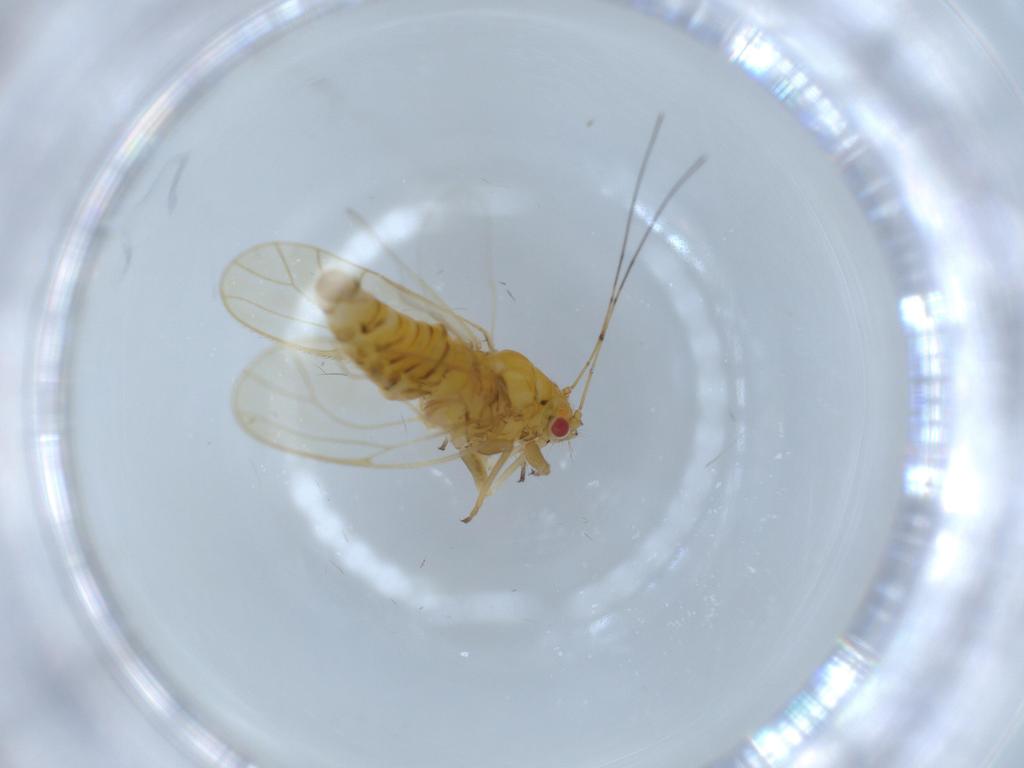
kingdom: Animalia
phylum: Arthropoda
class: Insecta
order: Hemiptera
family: Psyllidae
